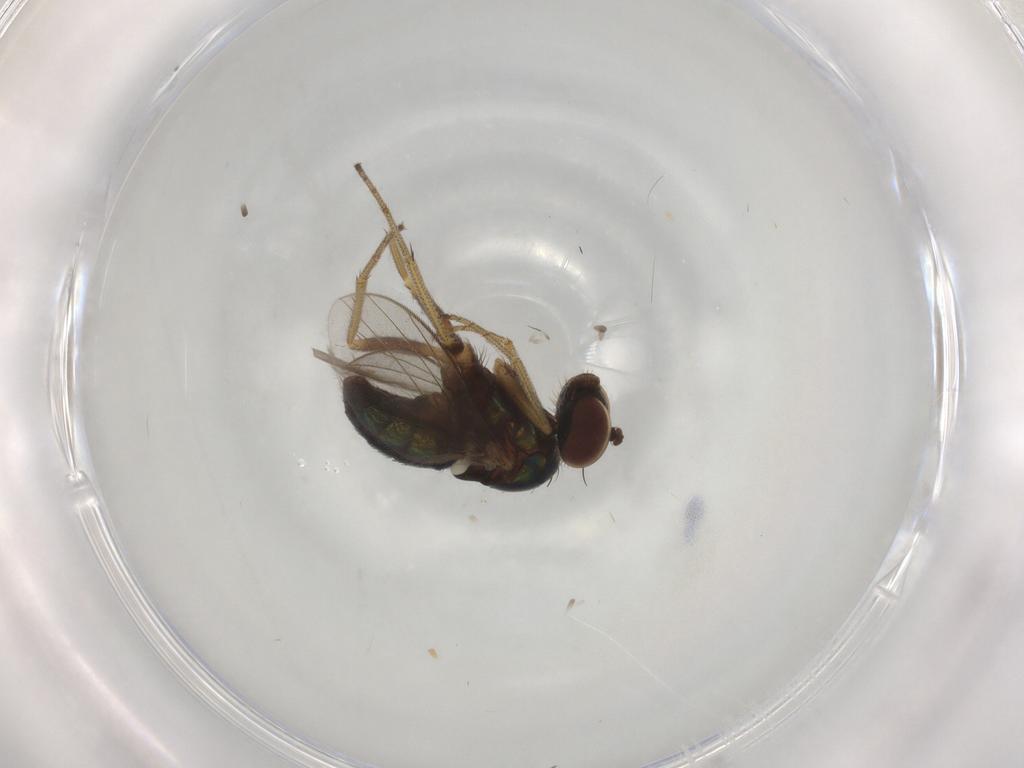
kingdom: Animalia
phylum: Arthropoda
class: Insecta
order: Diptera
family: Dolichopodidae
